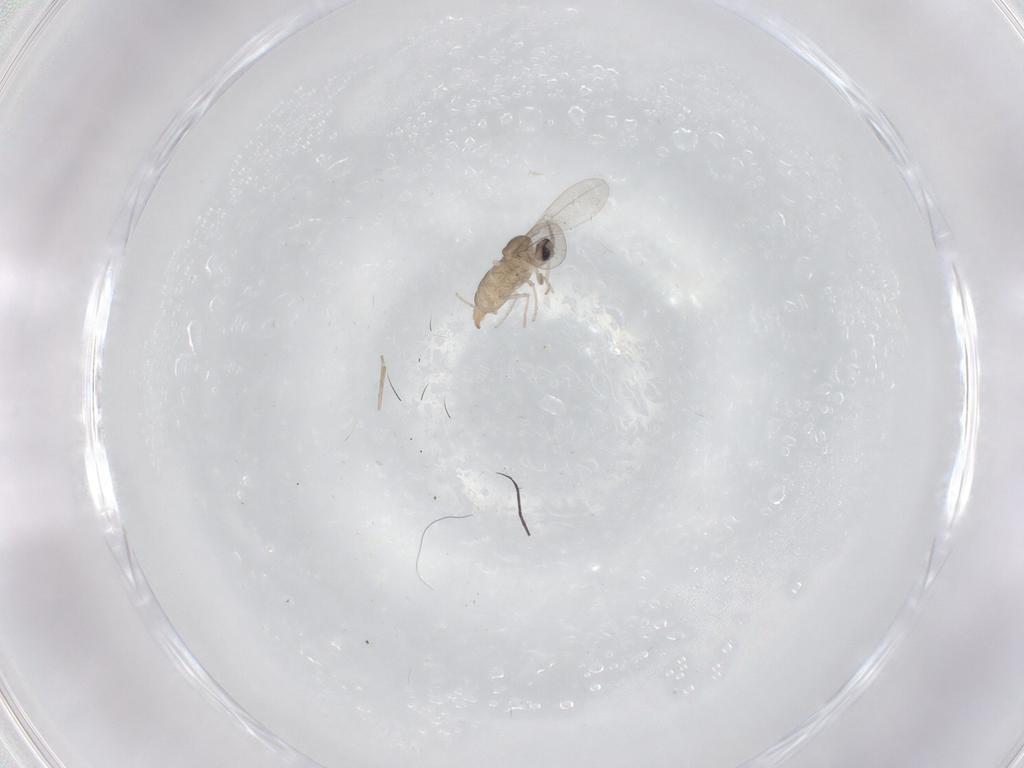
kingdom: Animalia
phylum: Arthropoda
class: Insecta
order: Diptera
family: Cecidomyiidae
